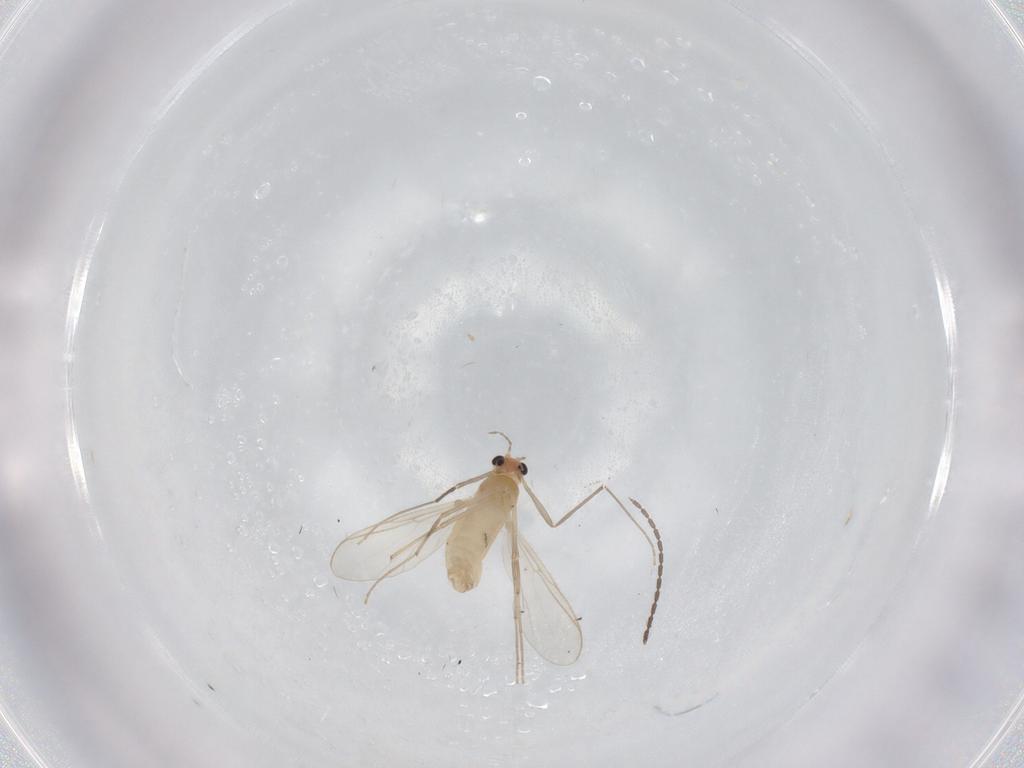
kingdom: Animalia
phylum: Arthropoda
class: Insecta
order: Diptera
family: Chironomidae
